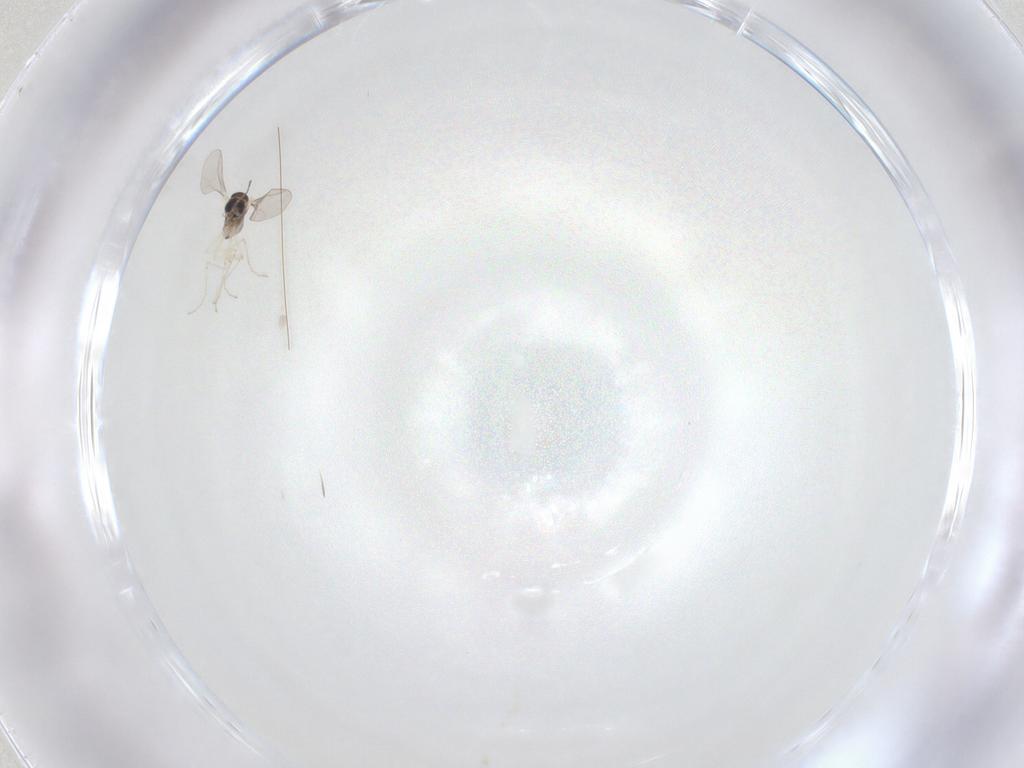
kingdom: Animalia
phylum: Arthropoda
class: Insecta
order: Diptera
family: Cecidomyiidae
